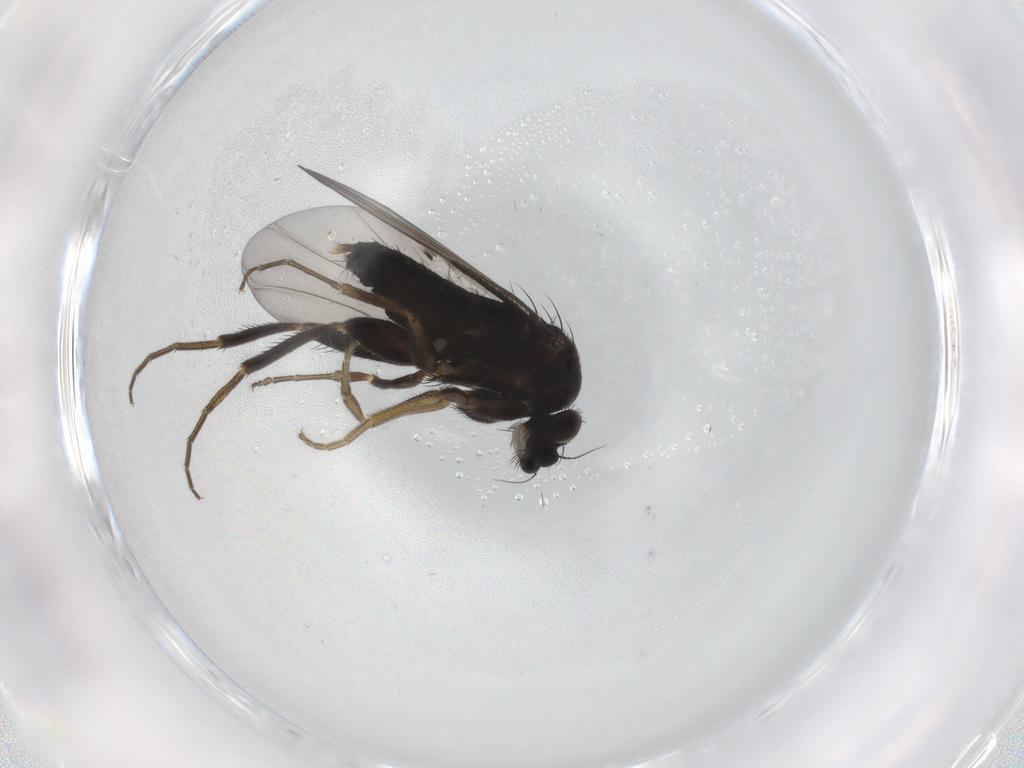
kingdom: Animalia
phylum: Arthropoda
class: Insecta
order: Diptera
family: Phoridae
